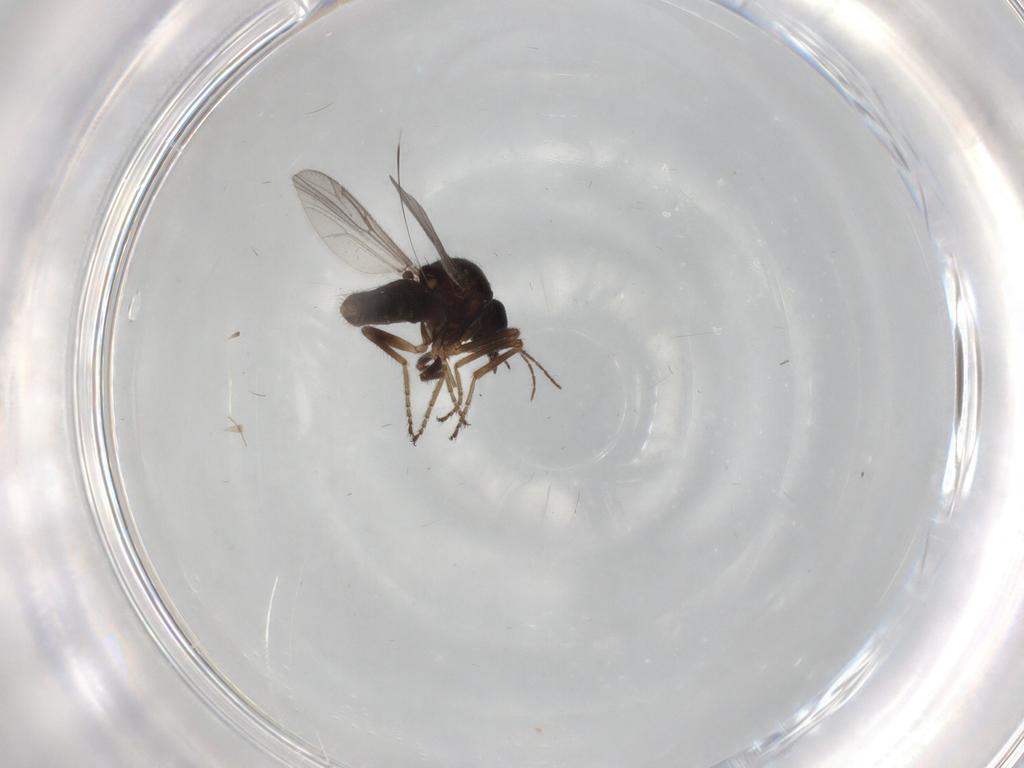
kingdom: Animalia
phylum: Arthropoda
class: Insecta
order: Diptera
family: Ceratopogonidae
